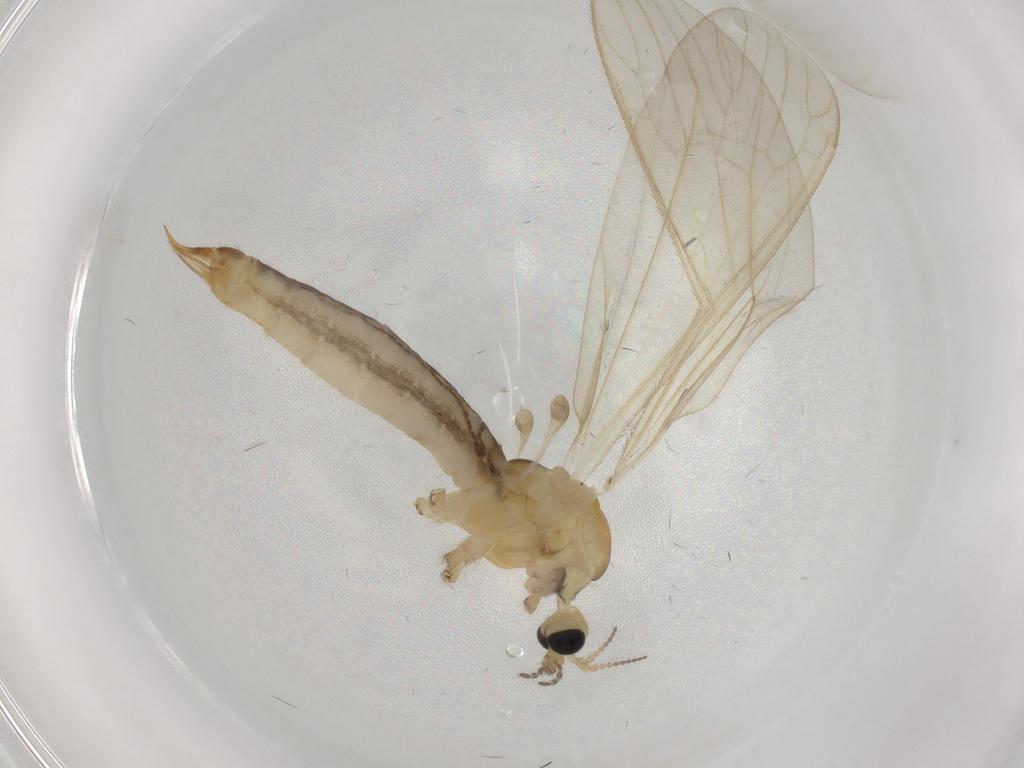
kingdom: Animalia
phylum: Arthropoda
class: Insecta
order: Diptera
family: Limoniidae
